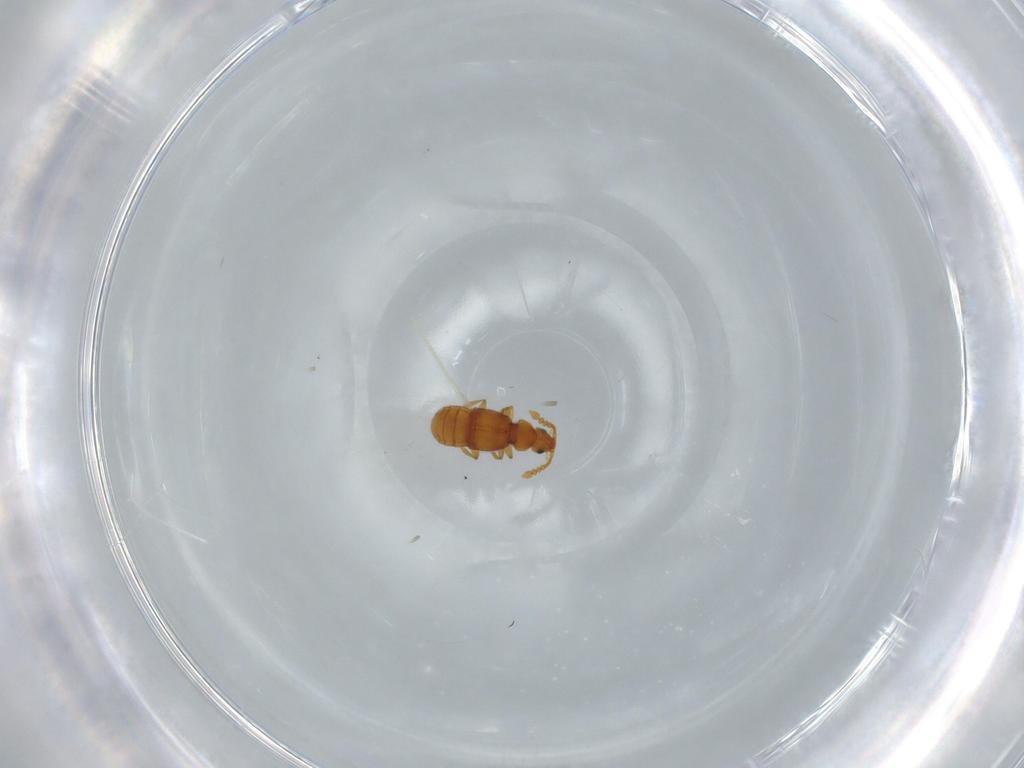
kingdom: Animalia
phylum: Arthropoda
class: Insecta
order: Coleoptera
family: Staphylinidae
